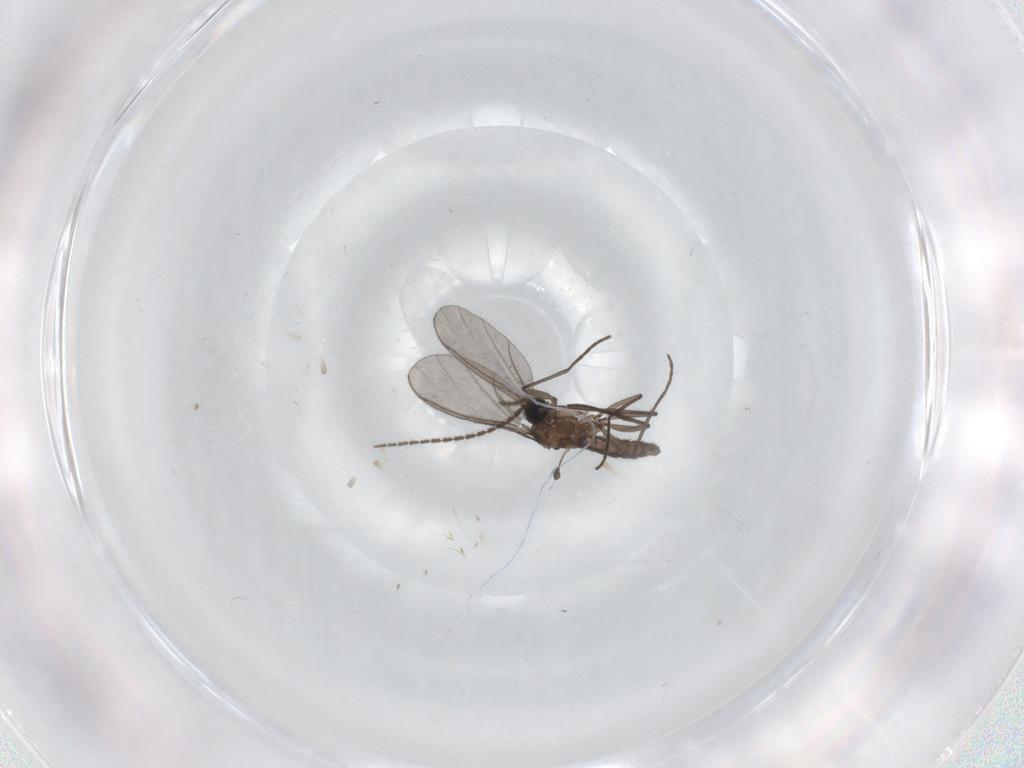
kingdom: Animalia
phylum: Arthropoda
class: Insecta
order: Diptera
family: Sciaridae
